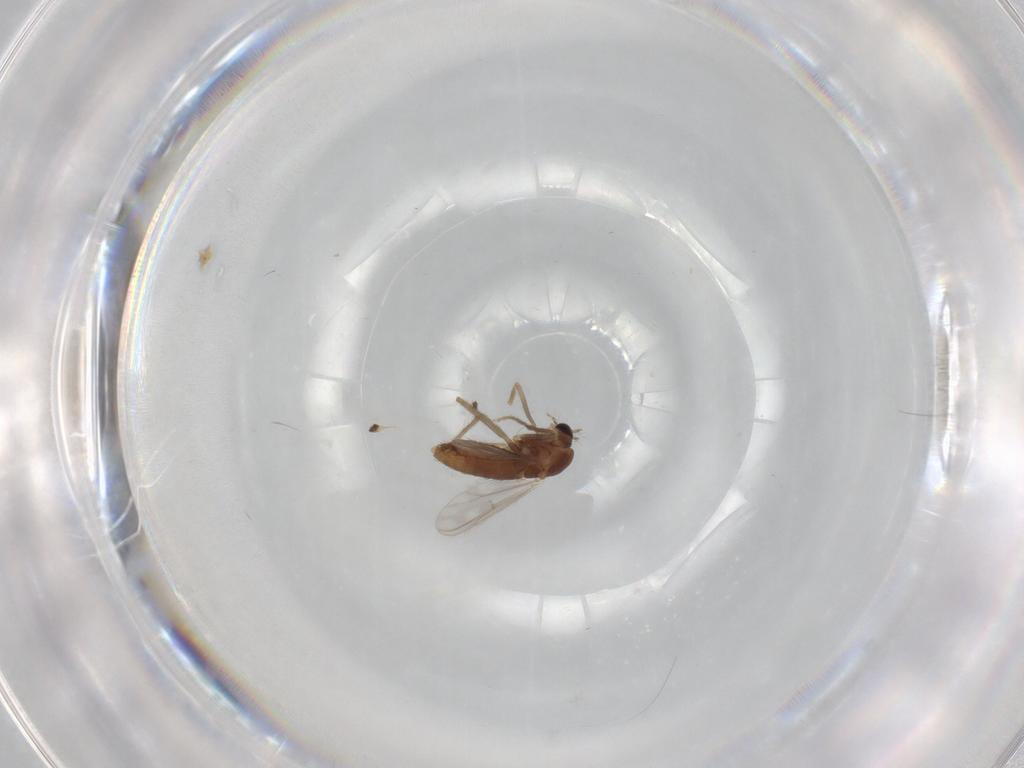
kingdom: Animalia
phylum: Arthropoda
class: Insecta
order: Diptera
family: Chironomidae
